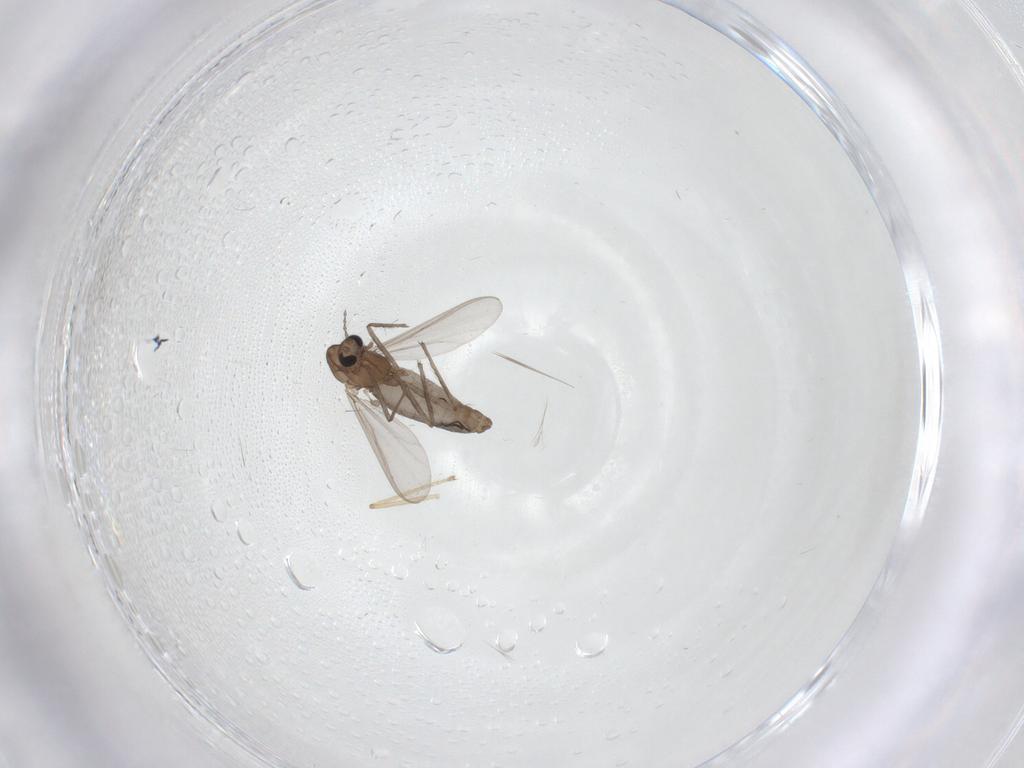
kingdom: Animalia
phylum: Arthropoda
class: Insecta
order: Diptera
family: Chironomidae
